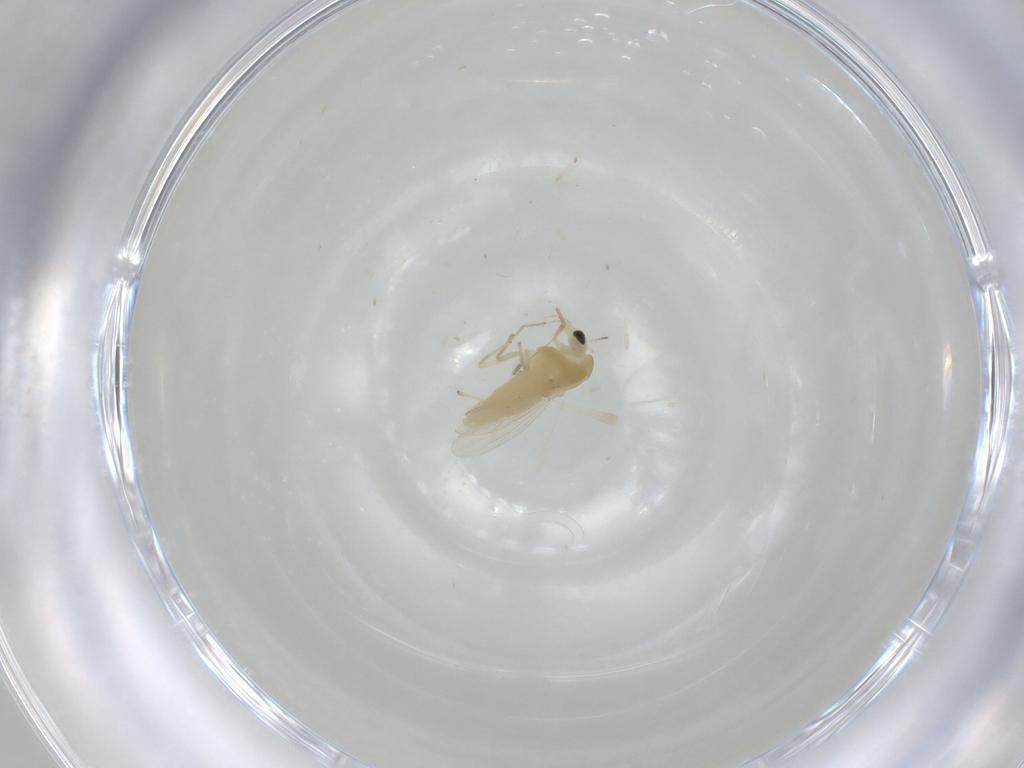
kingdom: Animalia
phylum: Arthropoda
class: Insecta
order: Diptera
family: Chironomidae
